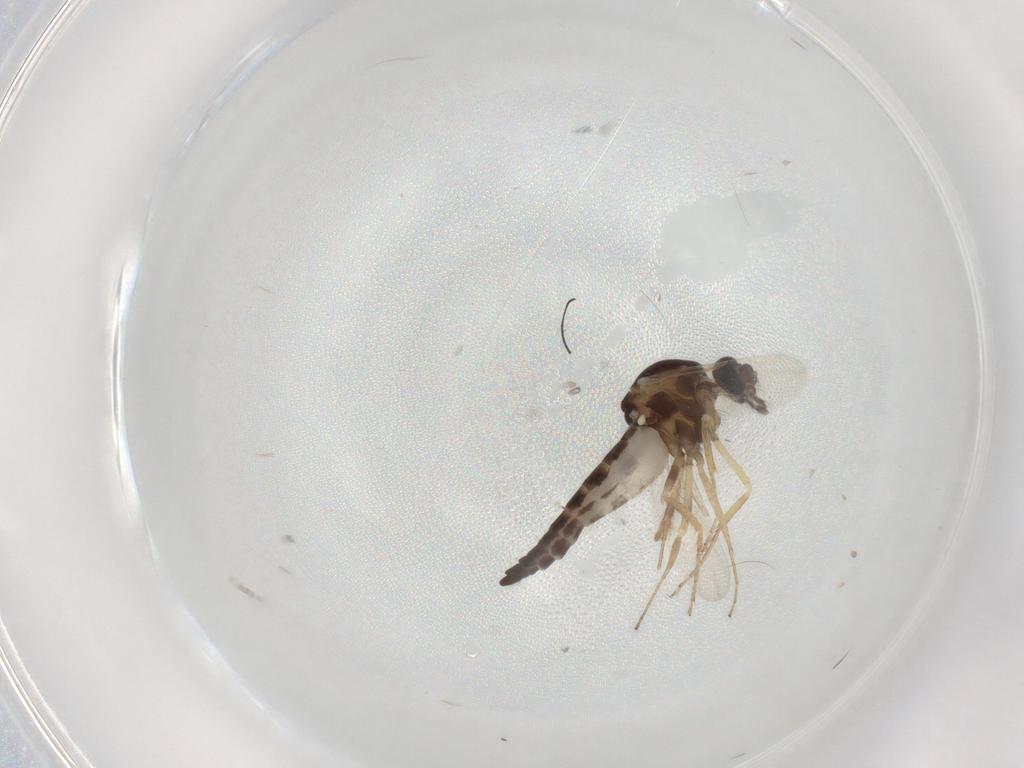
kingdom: Animalia
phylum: Arthropoda
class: Insecta
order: Diptera
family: Ceratopogonidae
